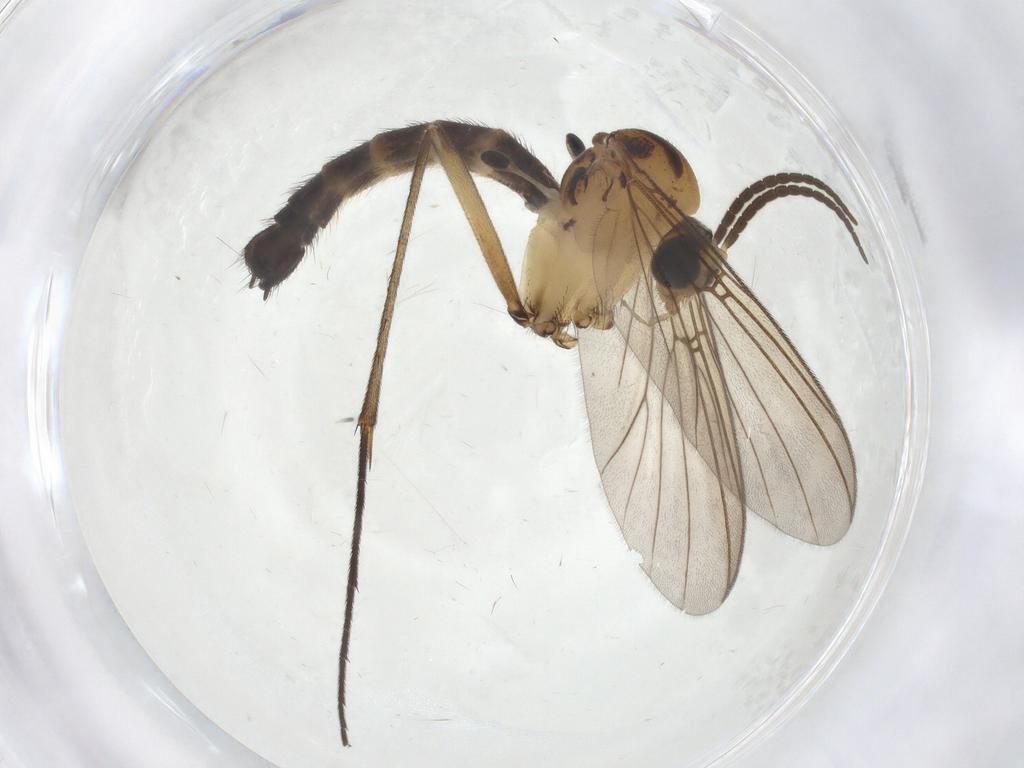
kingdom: Animalia
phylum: Arthropoda
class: Insecta
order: Diptera
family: Mycetophilidae
